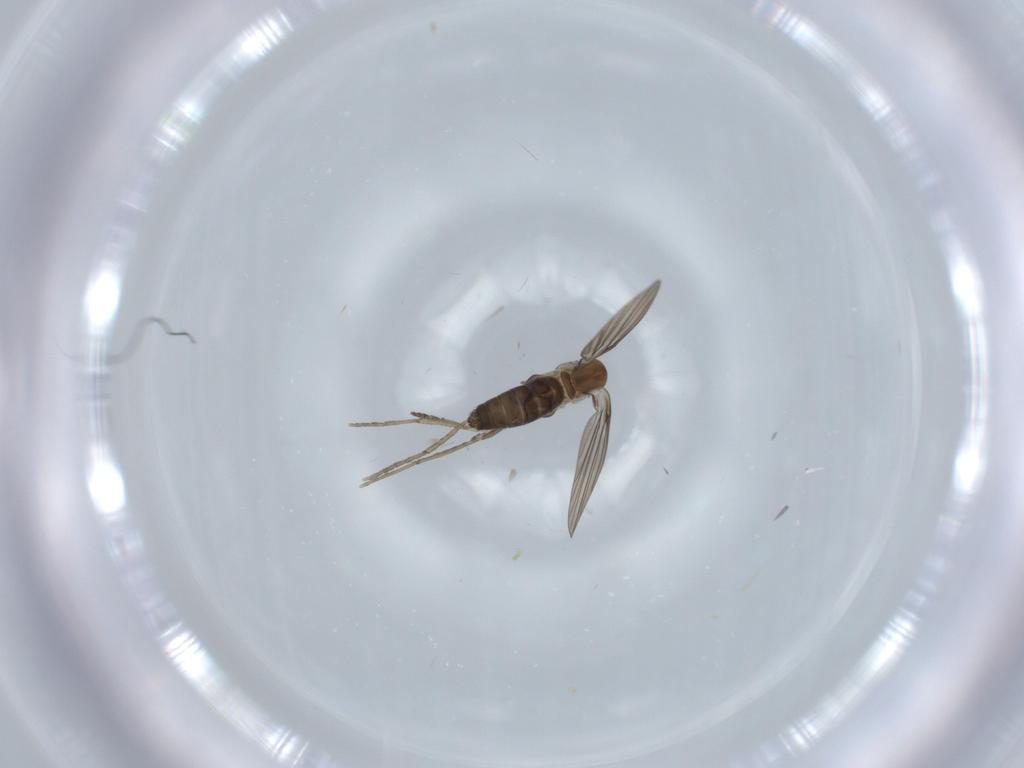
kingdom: Animalia
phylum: Arthropoda
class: Insecta
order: Diptera
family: Psychodidae
